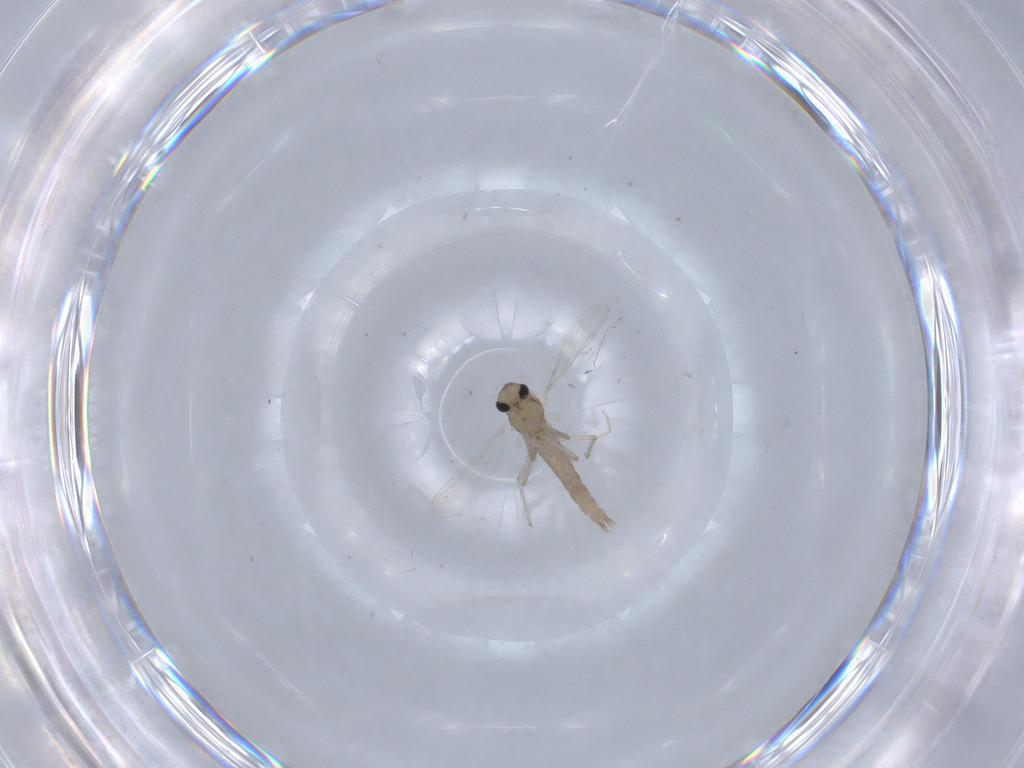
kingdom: Animalia
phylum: Arthropoda
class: Insecta
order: Diptera
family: Chironomidae
